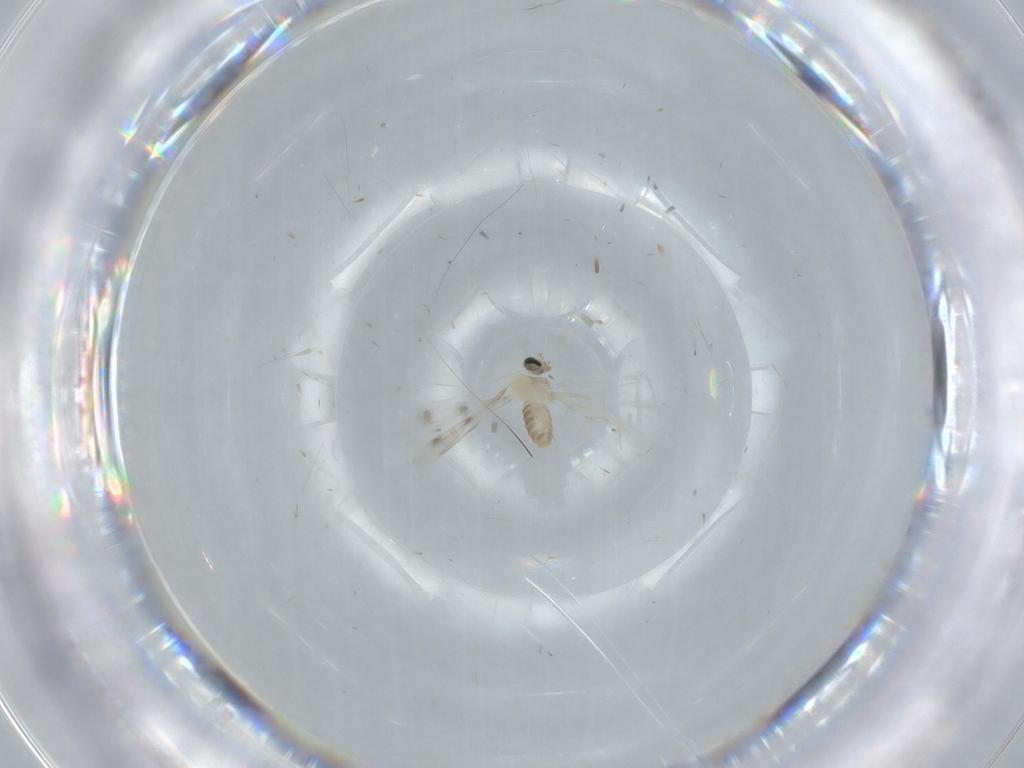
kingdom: Animalia
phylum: Arthropoda
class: Insecta
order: Diptera
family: Cecidomyiidae
